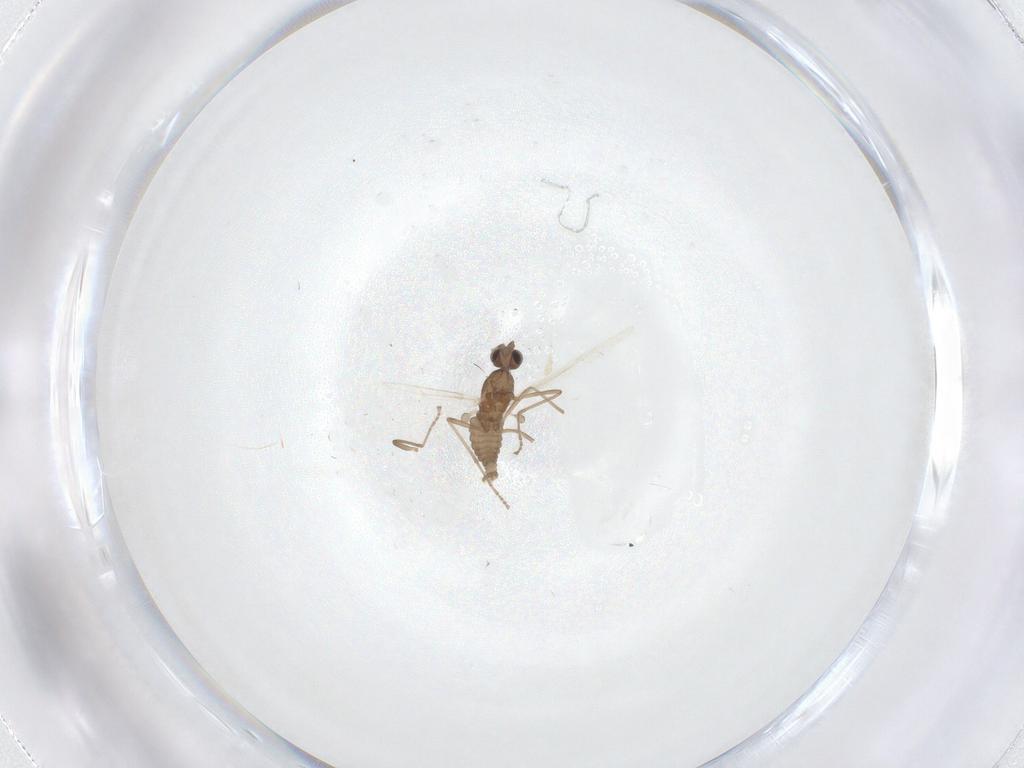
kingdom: Animalia
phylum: Arthropoda
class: Insecta
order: Diptera
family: Cecidomyiidae
